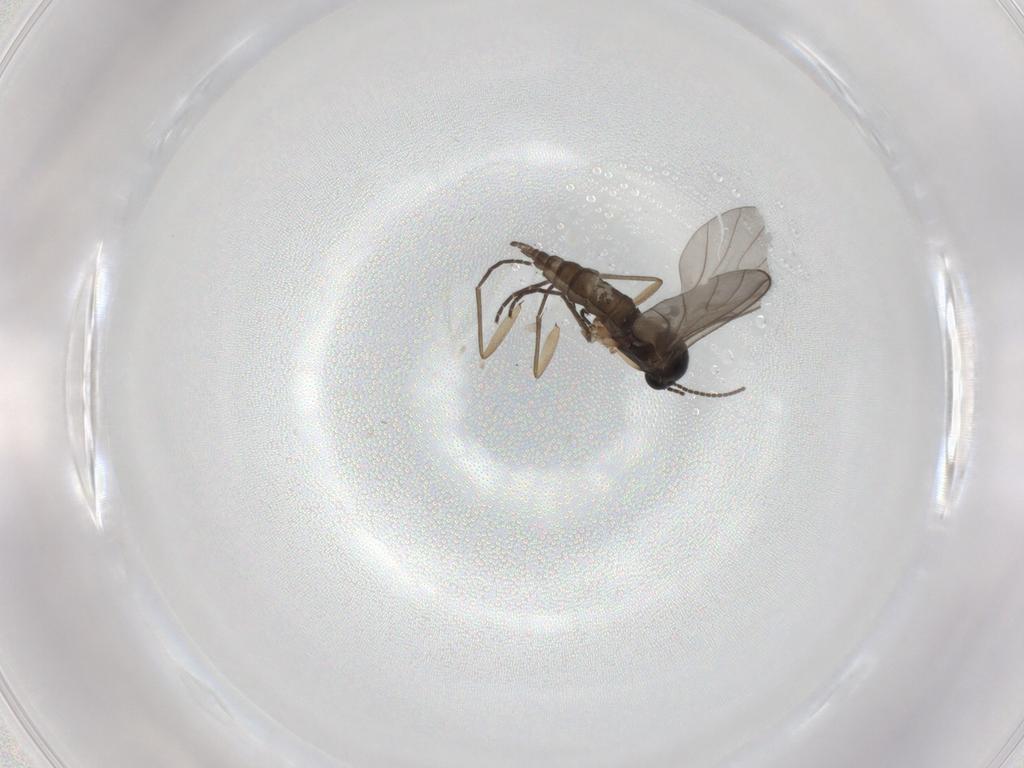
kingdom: Animalia
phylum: Arthropoda
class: Insecta
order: Diptera
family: Sciaridae
